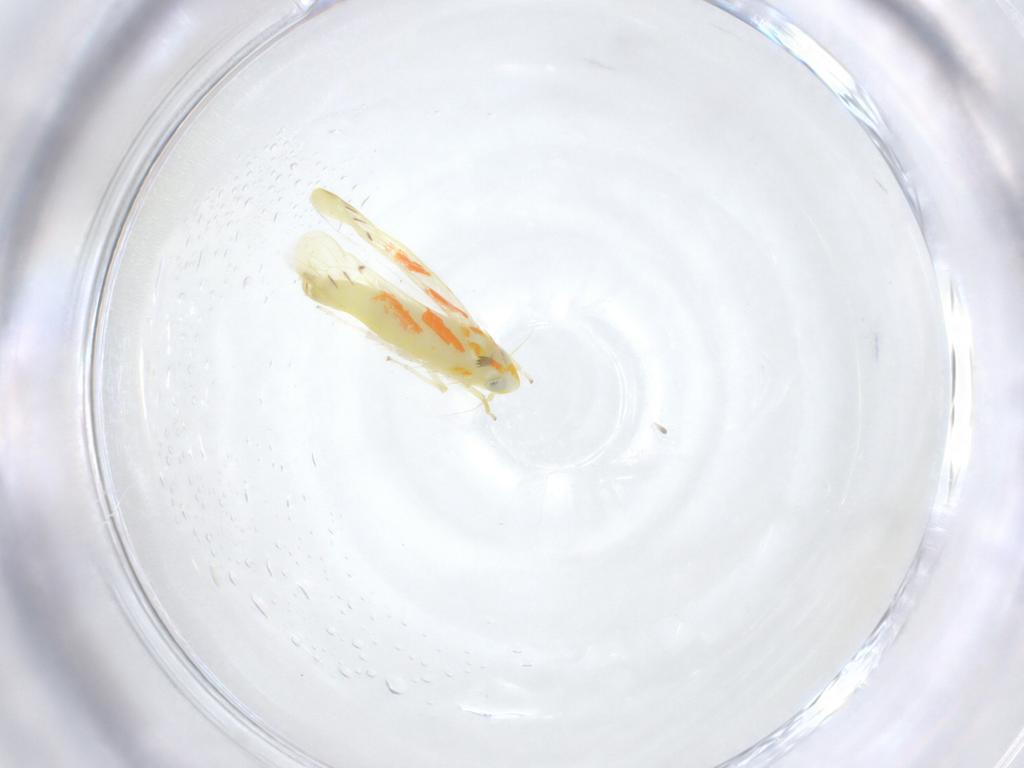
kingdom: Animalia
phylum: Arthropoda
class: Insecta
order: Hemiptera
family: Cicadellidae
